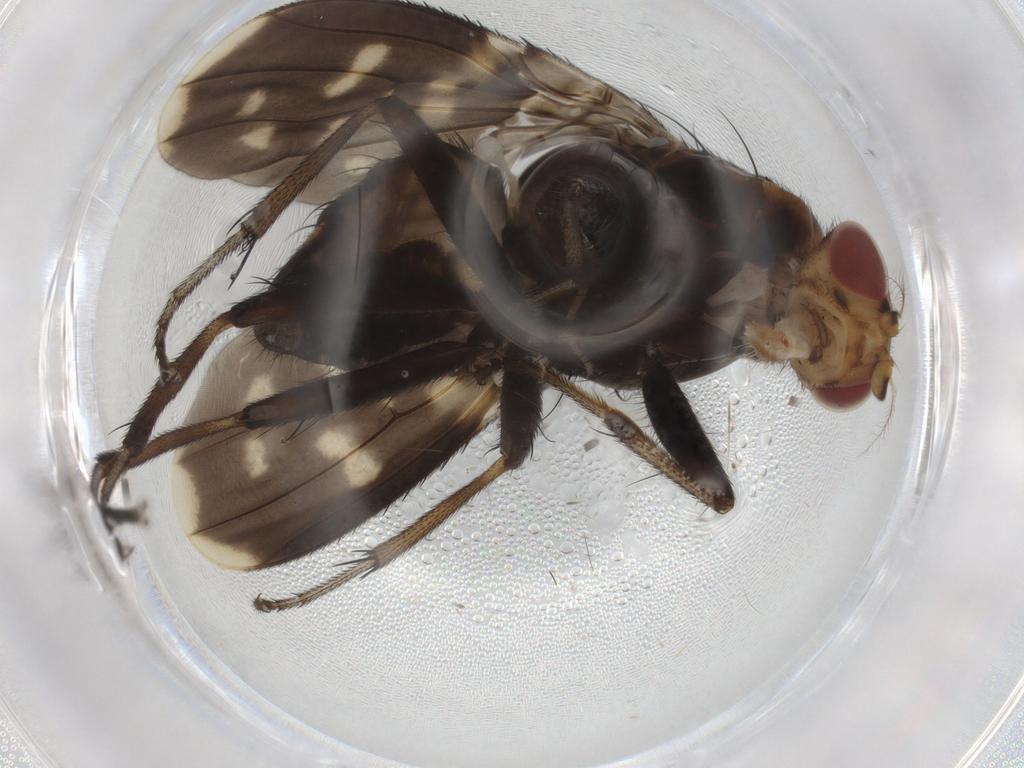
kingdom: Animalia
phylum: Arthropoda
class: Insecta
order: Diptera
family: Heleomyzidae
